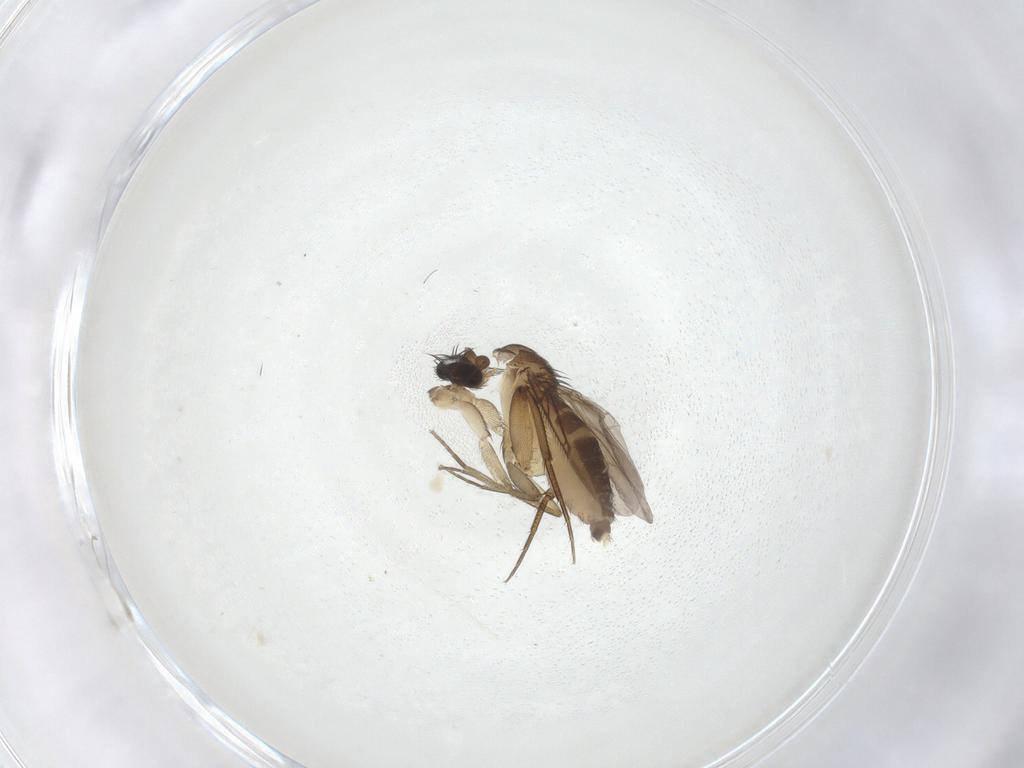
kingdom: Animalia
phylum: Arthropoda
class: Insecta
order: Diptera
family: Phoridae
